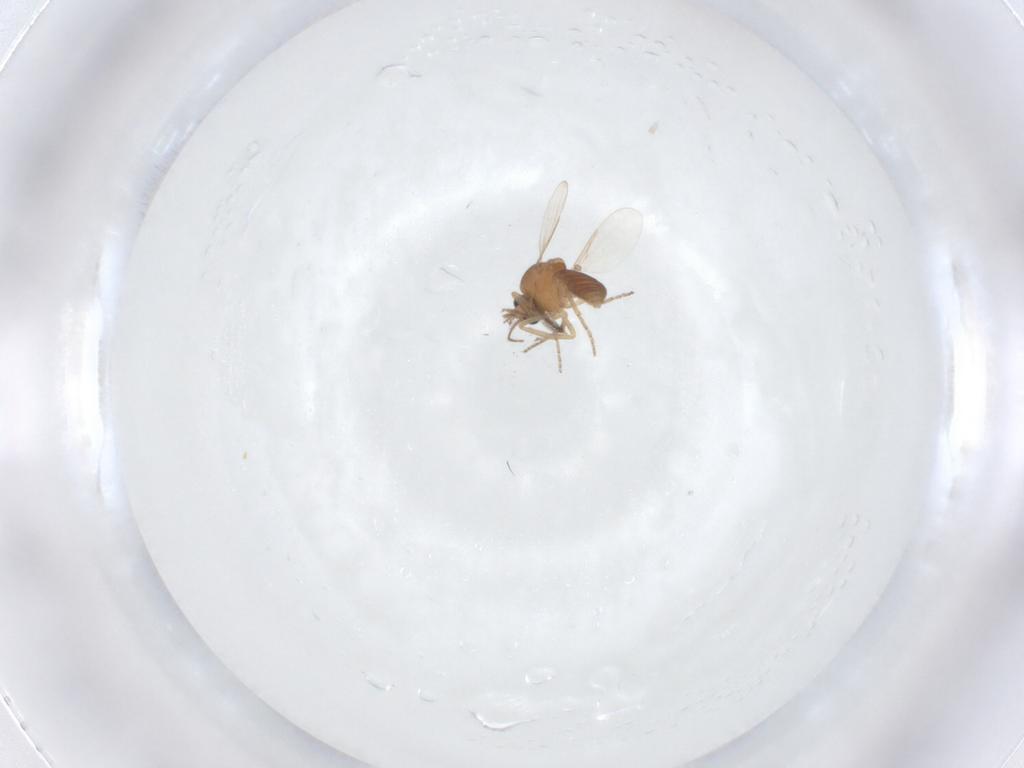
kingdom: Animalia
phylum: Arthropoda
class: Insecta
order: Diptera
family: Ceratopogonidae
